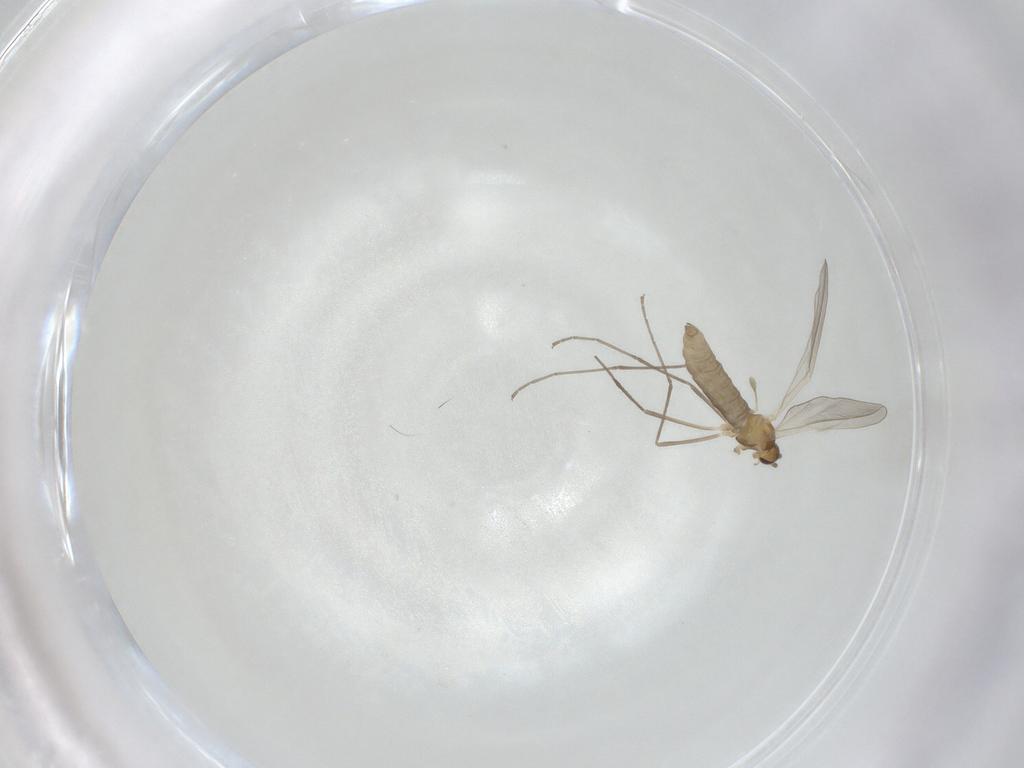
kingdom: Animalia
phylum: Arthropoda
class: Insecta
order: Diptera
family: Cecidomyiidae
